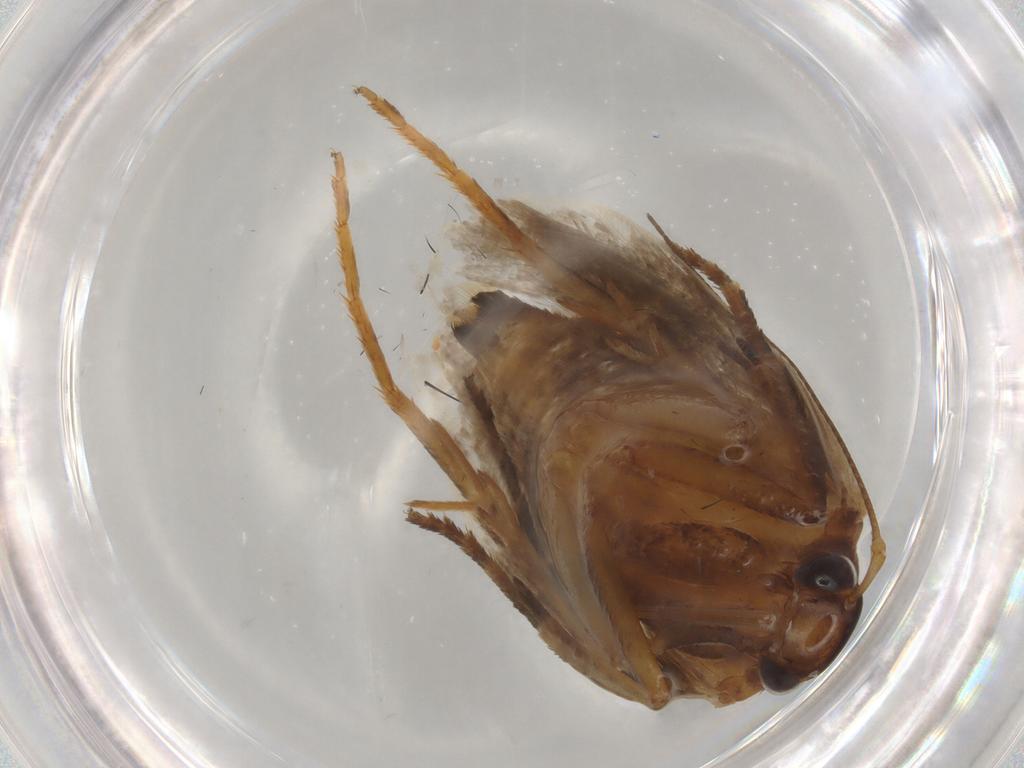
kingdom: Animalia
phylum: Arthropoda
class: Insecta
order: Lepidoptera
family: Gelechiidae
